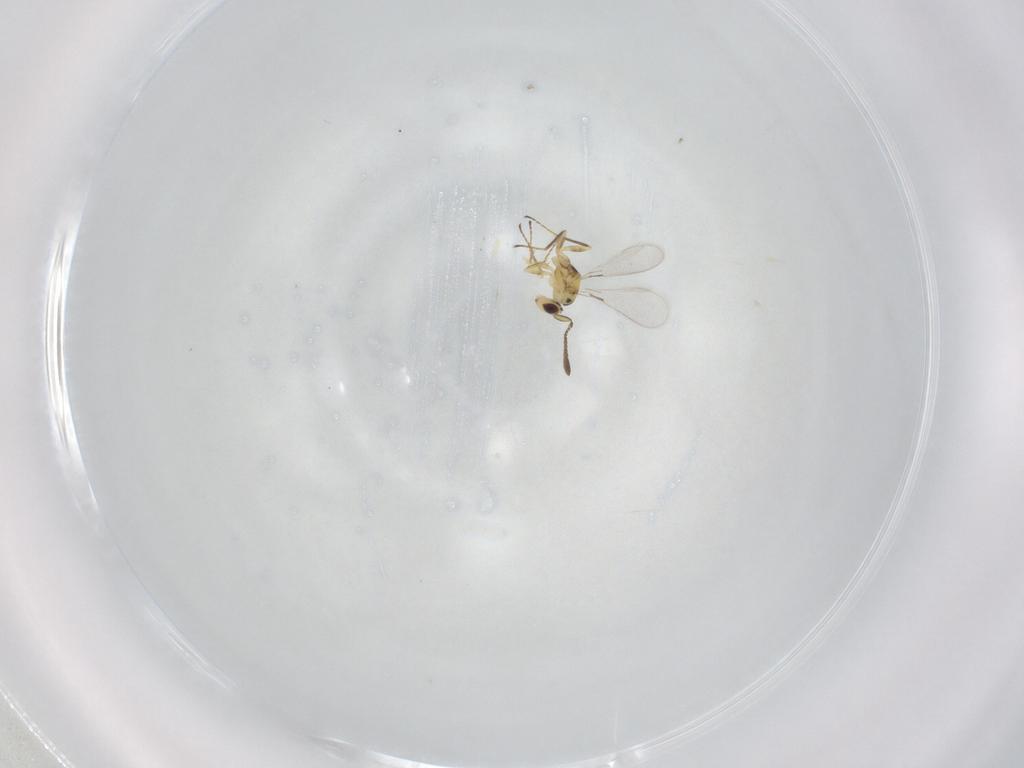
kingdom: Animalia
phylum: Arthropoda
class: Insecta
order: Hymenoptera
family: Mymaridae
